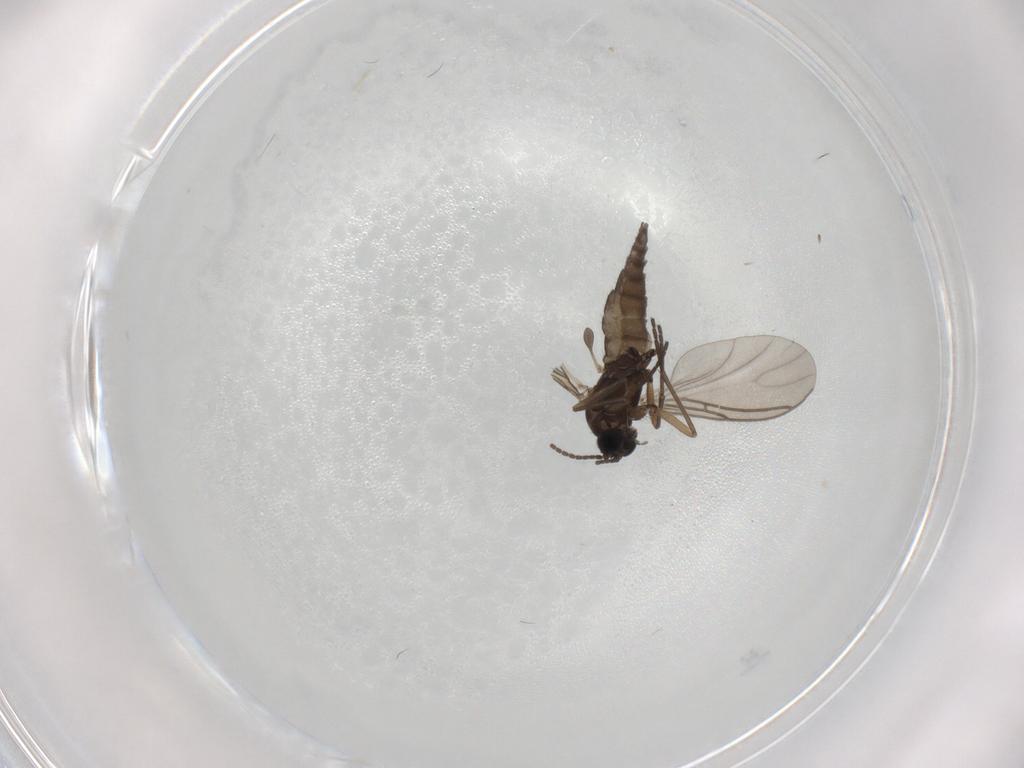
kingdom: Animalia
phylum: Arthropoda
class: Insecta
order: Diptera
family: Sciaridae
